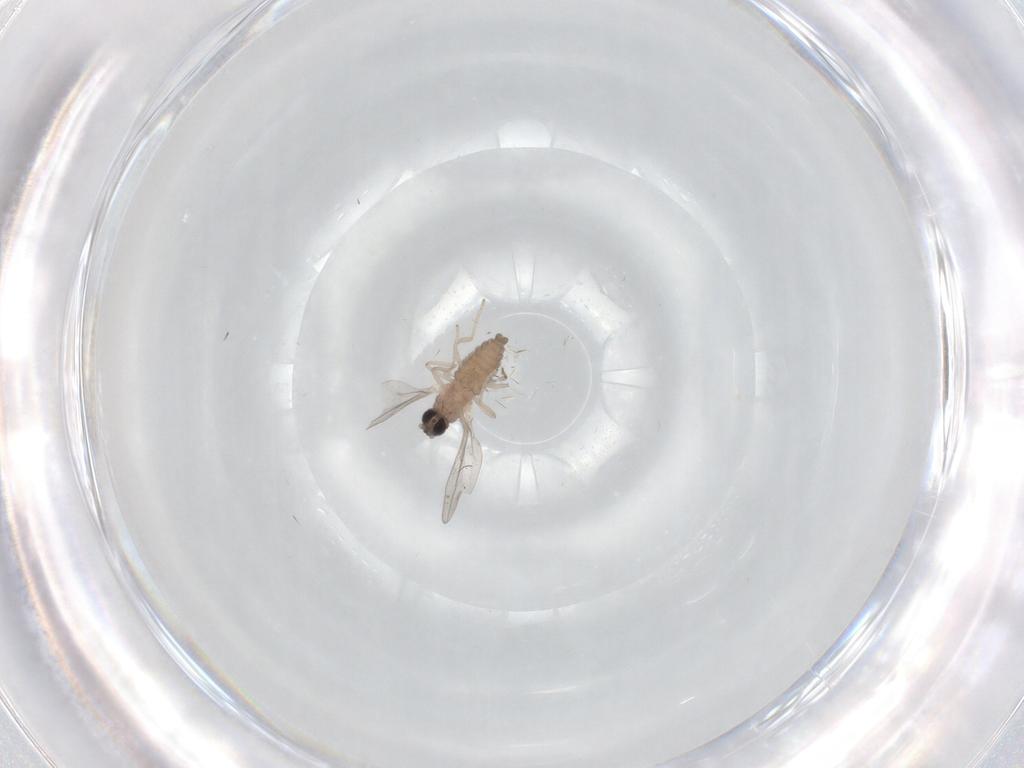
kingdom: Animalia
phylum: Arthropoda
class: Insecta
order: Diptera
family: Cecidomyiidae
